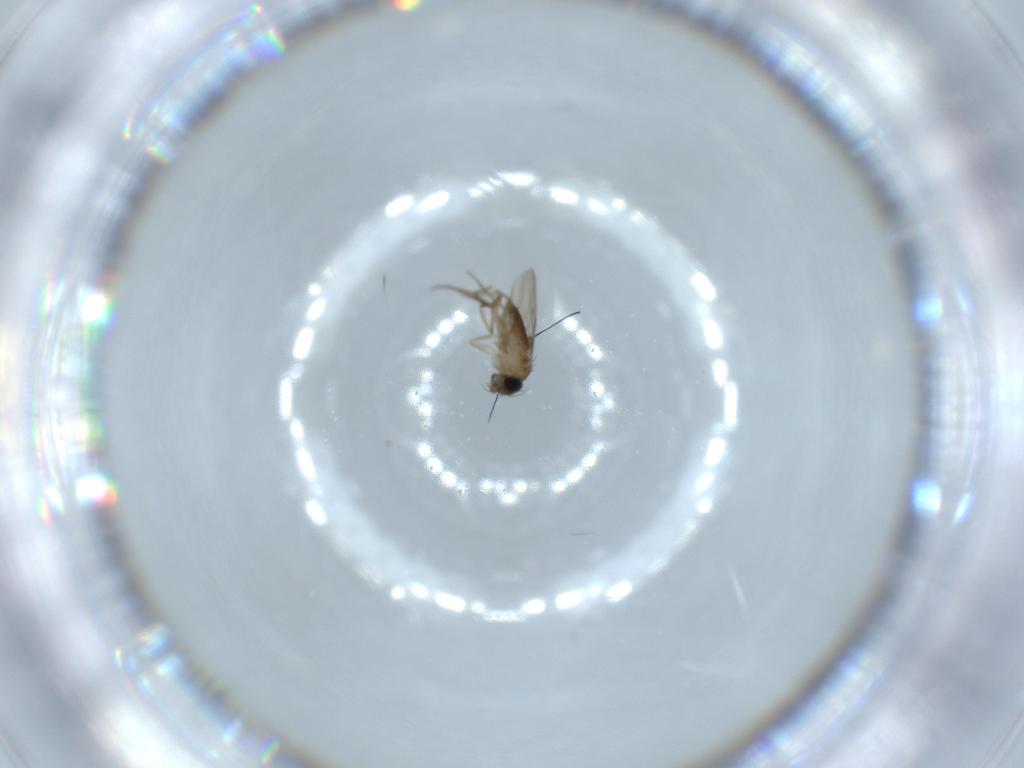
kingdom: Animalia
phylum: Arthropoda
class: Insecta
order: Diptera
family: Phoridae
